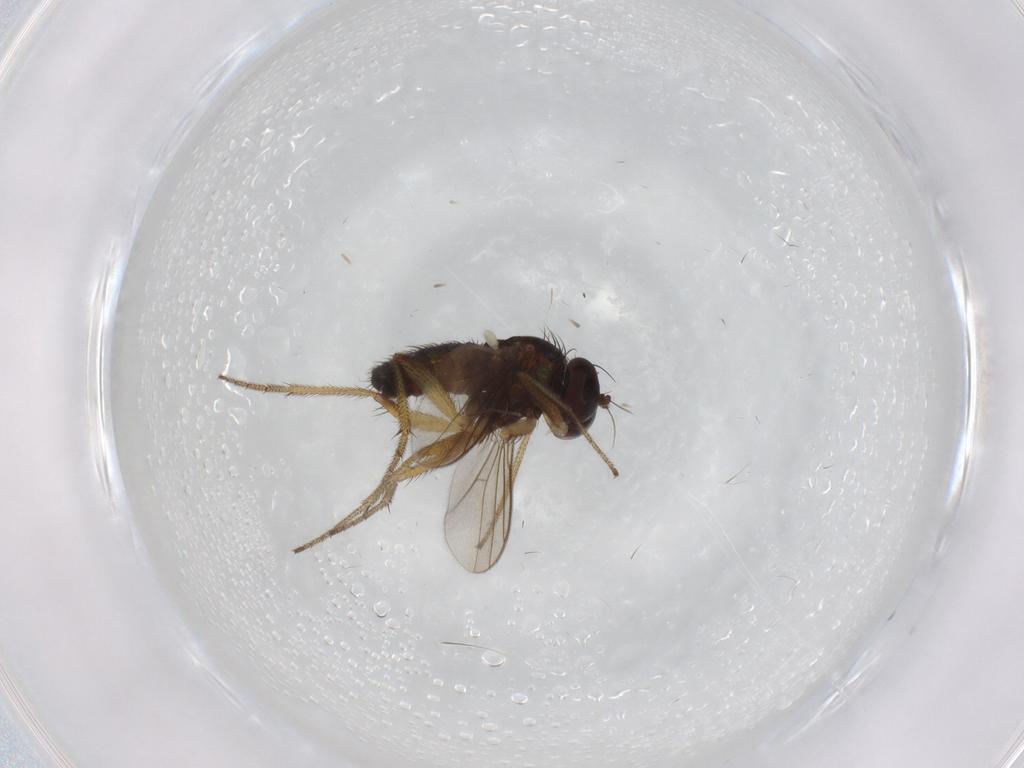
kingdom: Animalia
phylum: Arthropoda
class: Insecta
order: Diptera
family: Dolichopodidae
